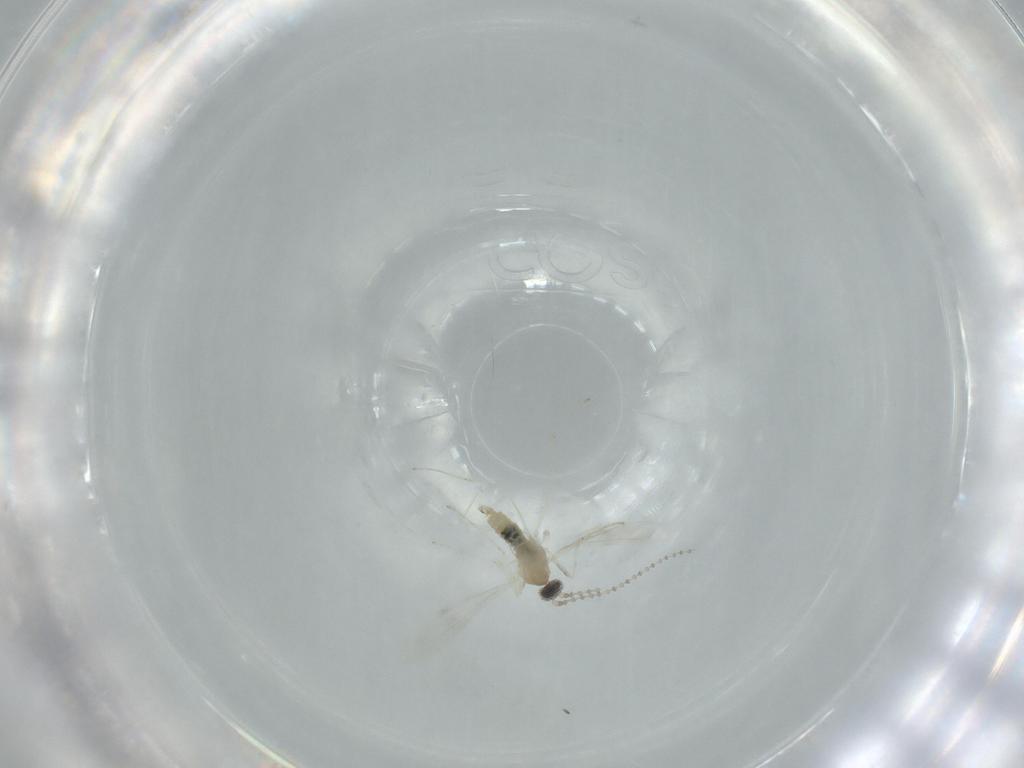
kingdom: Animalia
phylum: Arthropoda
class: Insecta
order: Diptera
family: Cecidomyiidae
